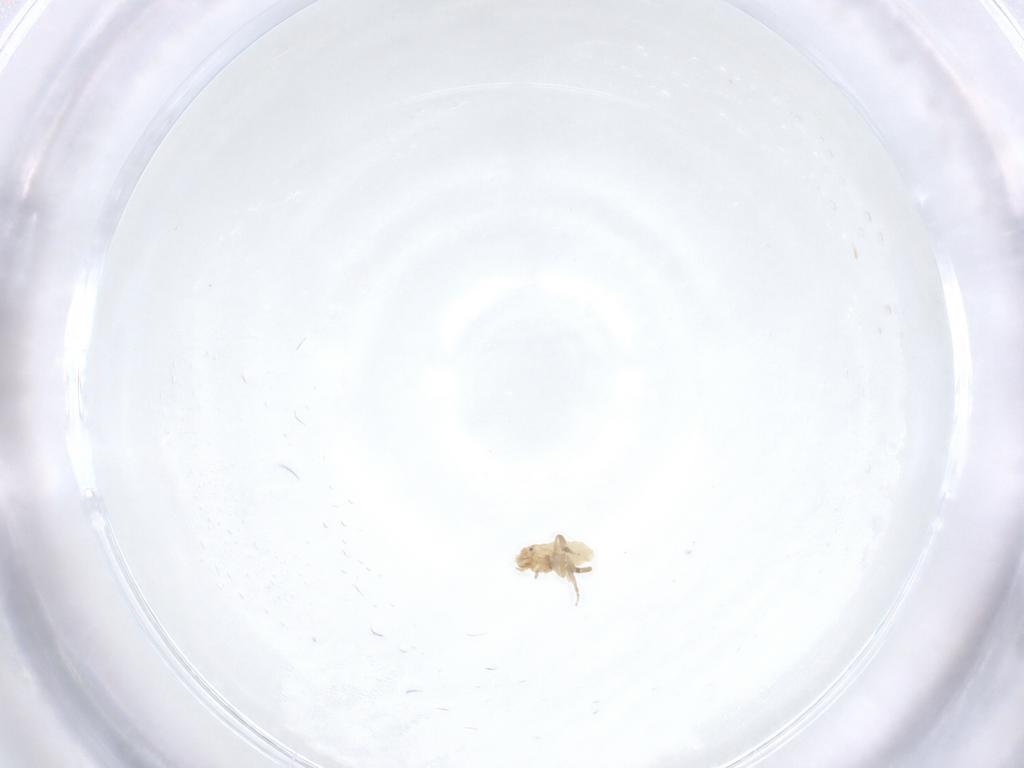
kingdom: Animalia
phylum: Arthropoda
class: Insecta
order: Diptera
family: Phoridae
